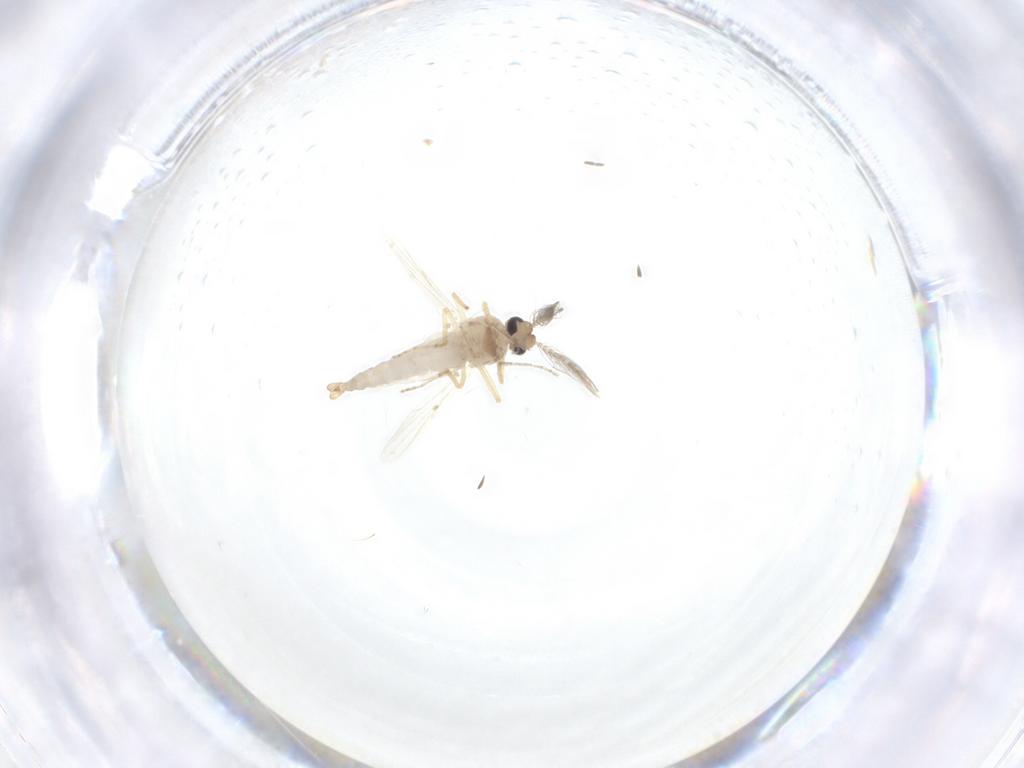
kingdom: Animalia
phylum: Arthropoda
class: Insecta
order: Diptera
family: Ceratopogonidae
